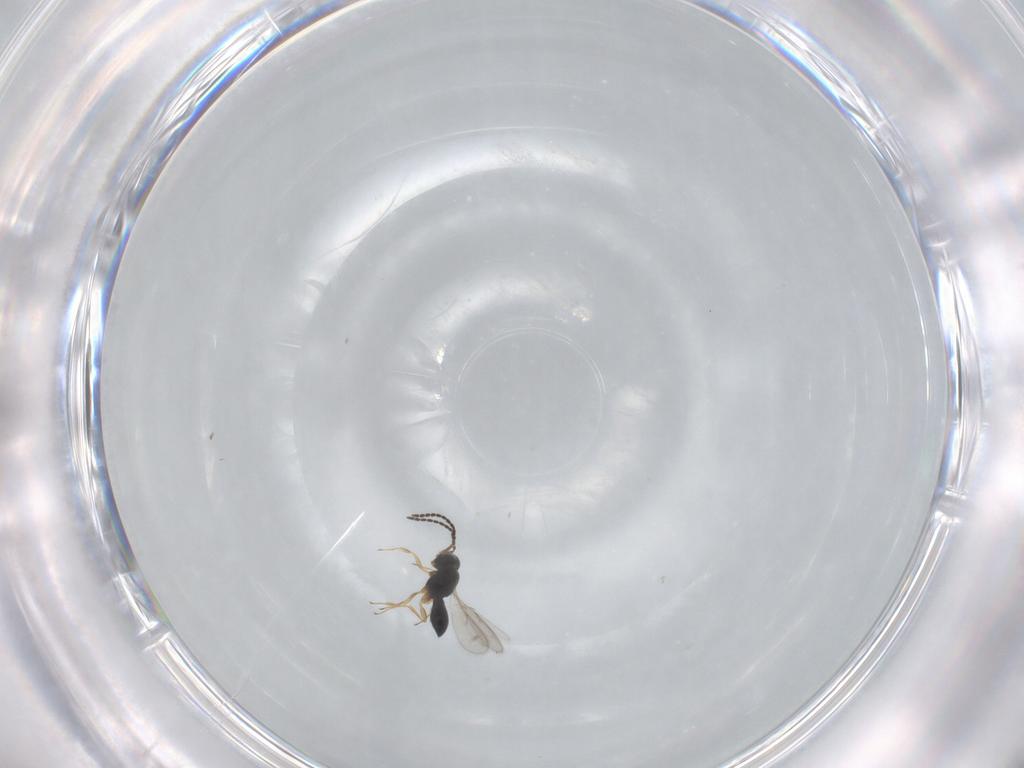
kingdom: Animalia
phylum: Arthropoda
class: Insecta
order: Hymenoptera
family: Scelionidae
